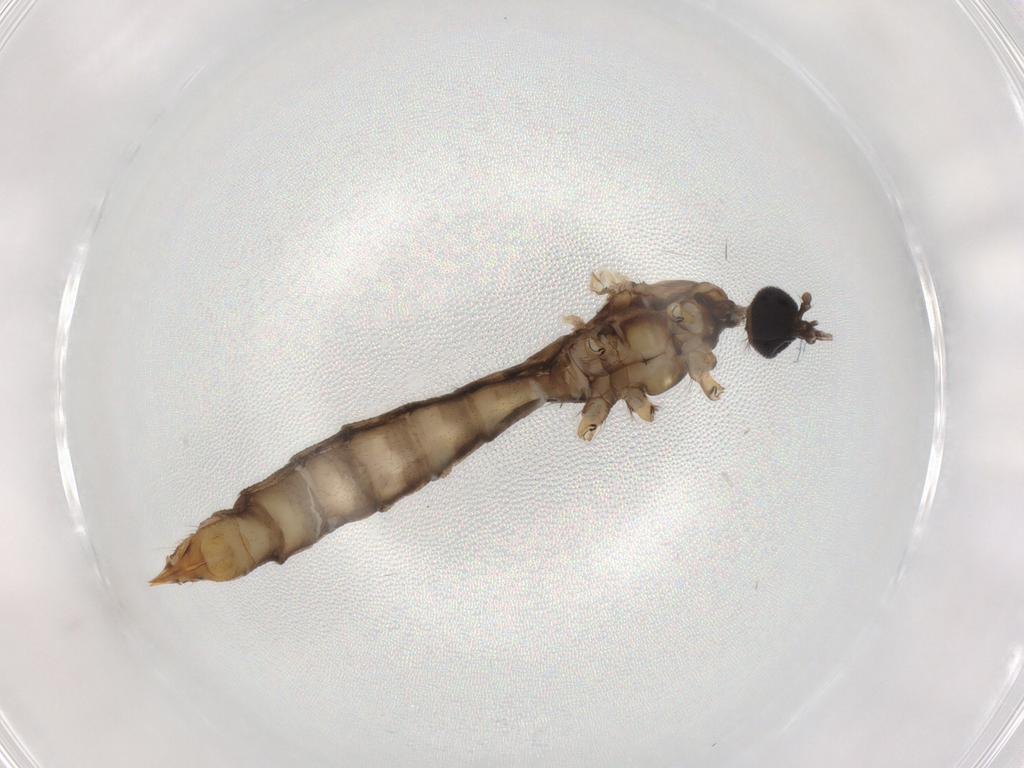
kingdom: Animalia
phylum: Arthropoda
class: Insecta
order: Diptera
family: Drosophilidae
